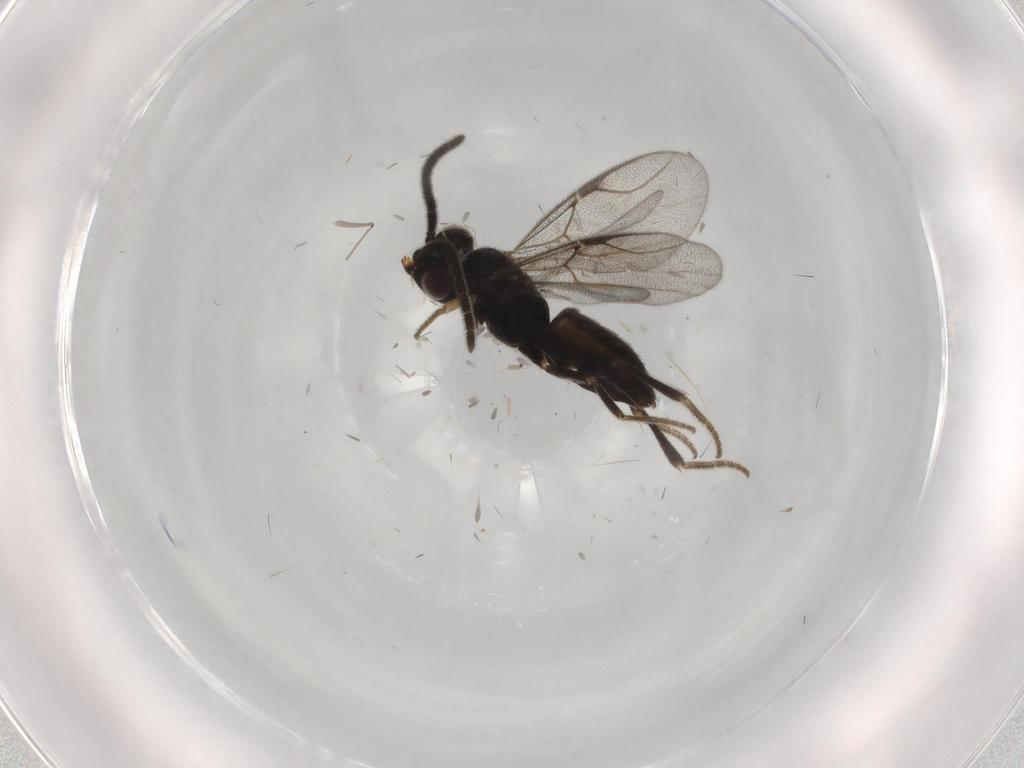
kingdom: Animalia
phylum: Arthropoda
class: Insecta
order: Hymenoptera
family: Dryinidae
